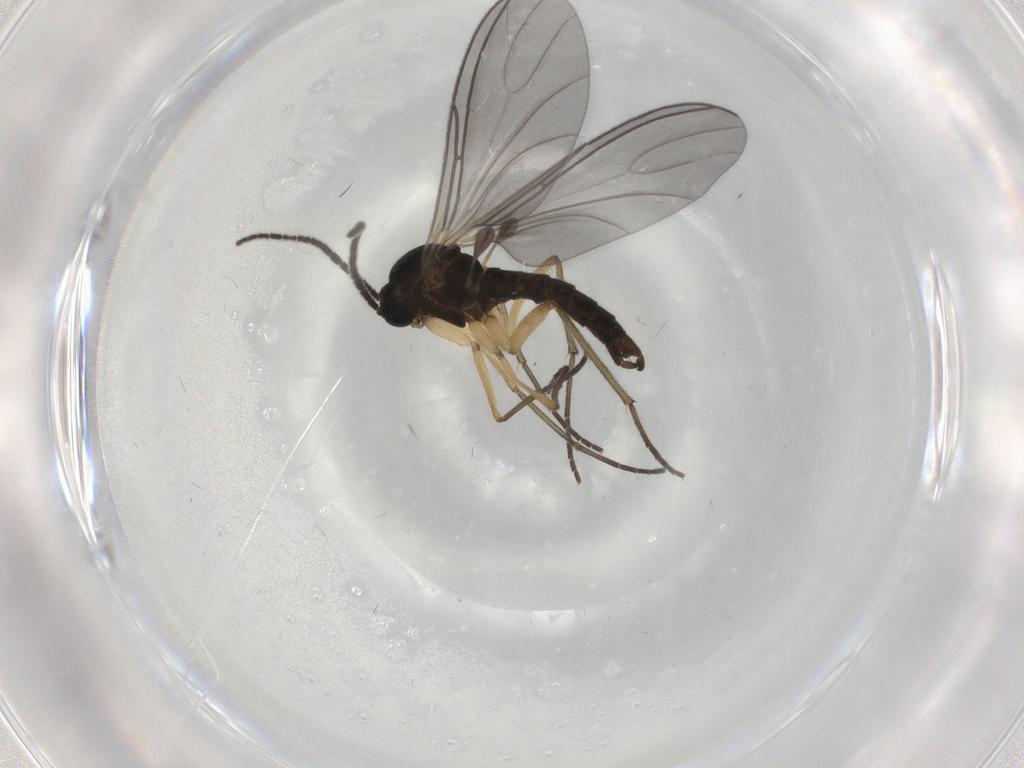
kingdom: Animalia
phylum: Arthropoda
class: Insecta
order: Diptera
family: Sciaridae
